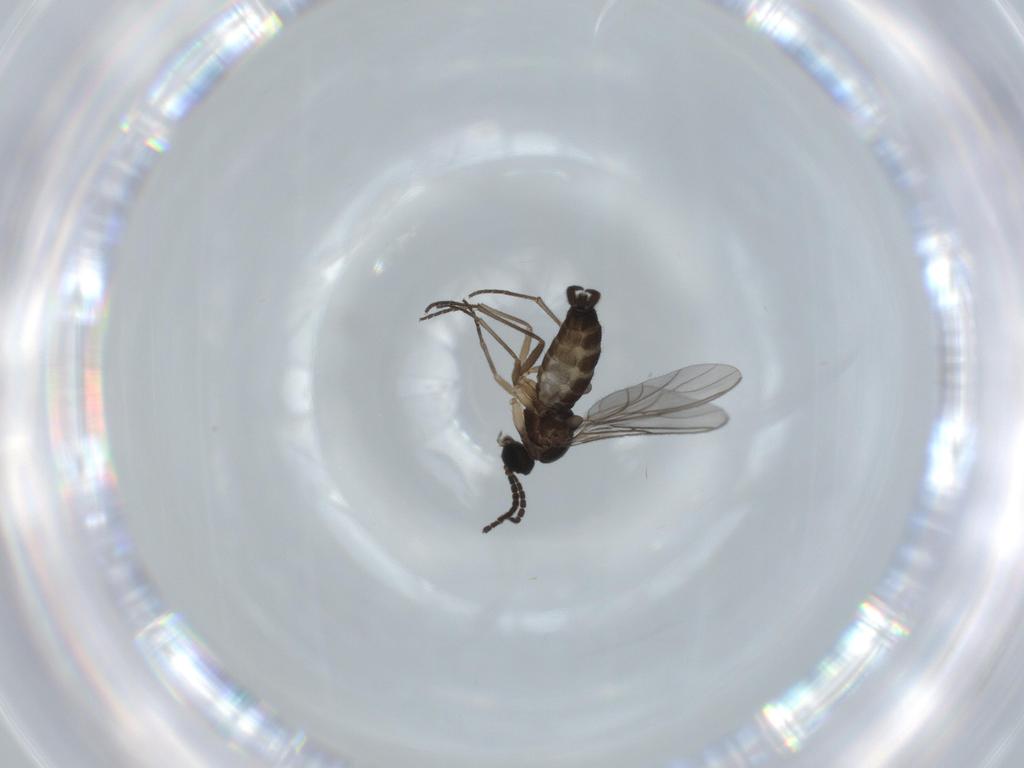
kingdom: Animalia
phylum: Arthropoda
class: Insecta
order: Diptera
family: Sciaridae
